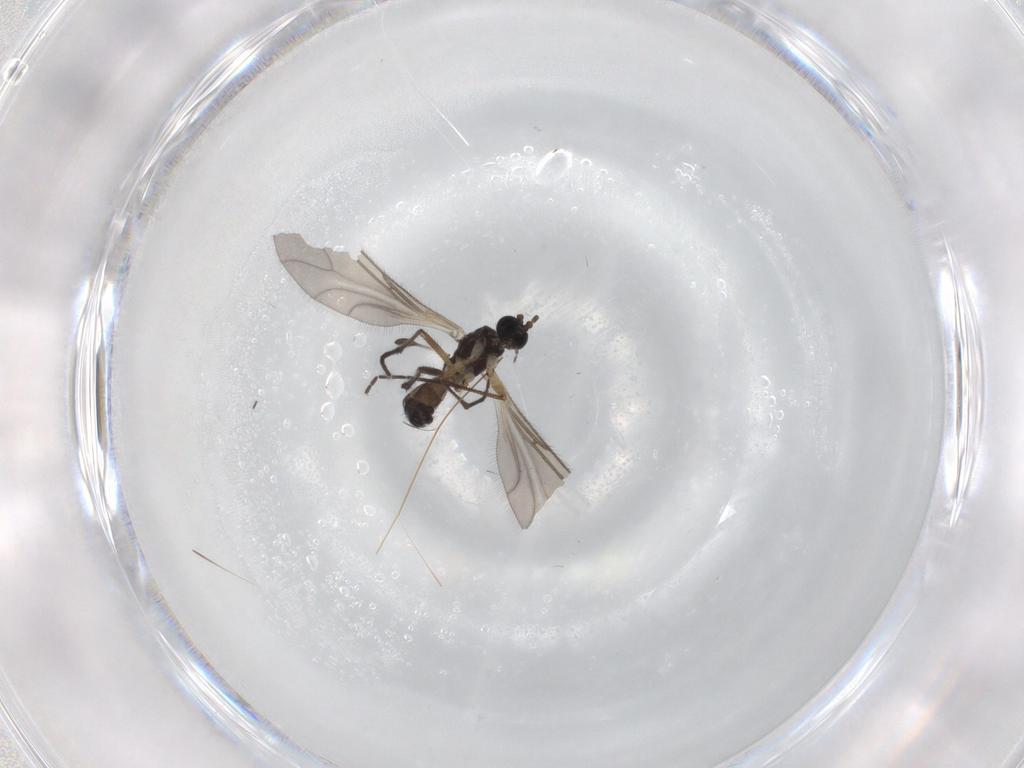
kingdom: Animalia
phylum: Arthropoda
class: Insecta
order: Diptera
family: Sciaridae
